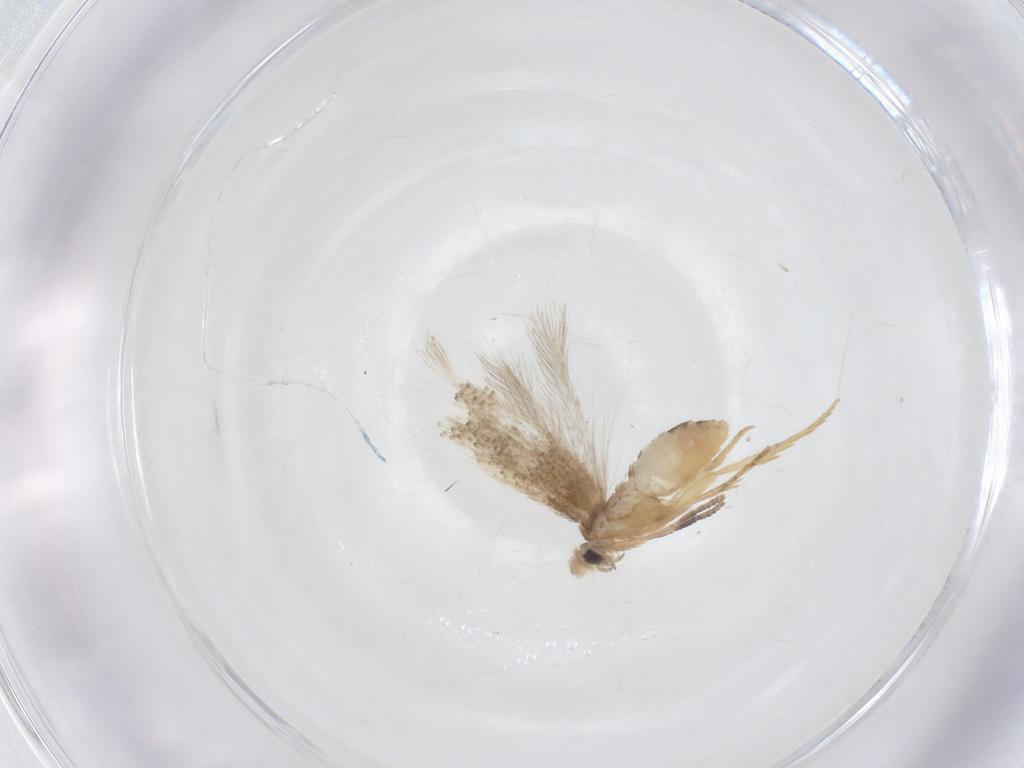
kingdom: Animalia
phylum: Arthropoda
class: Insecta
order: Lepidoptera
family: Nepticulidae
